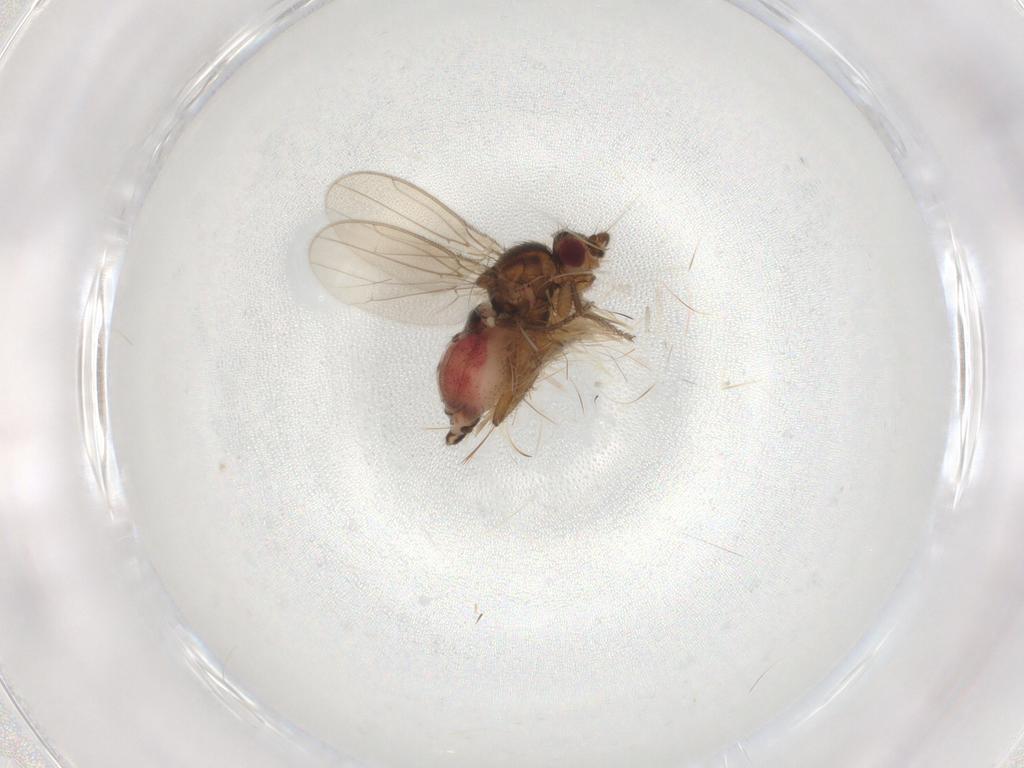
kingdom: Animalia
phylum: Arthropoda
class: Insecta
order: Diptera
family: Sphaeroceridae
